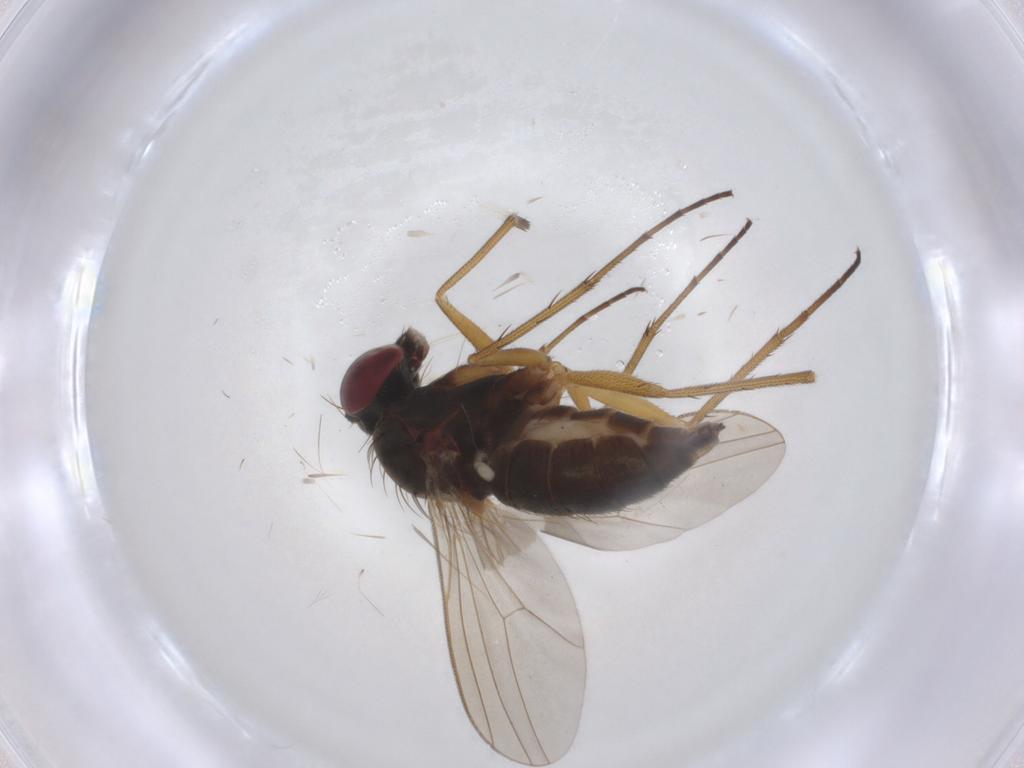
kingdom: Animalia
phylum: Arthropoda
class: Insecta
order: Diptera
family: Dolichopodidae
